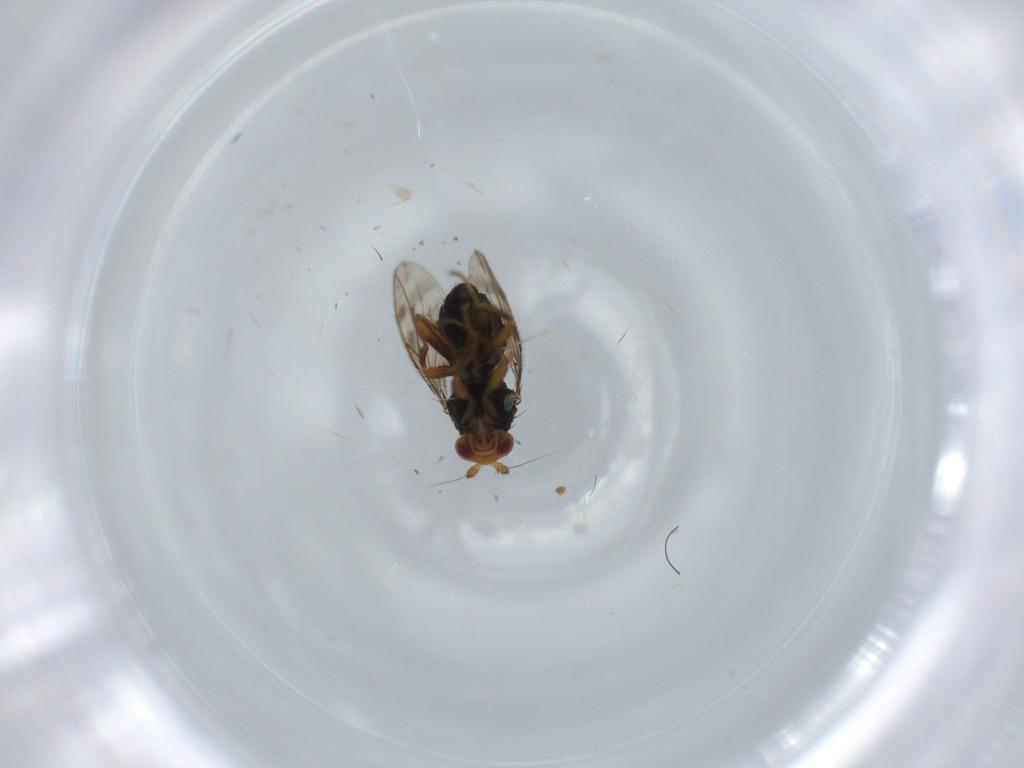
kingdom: Animalia
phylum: Arthropoda
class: Insecta
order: Diptera
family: Sphaeroceridae
